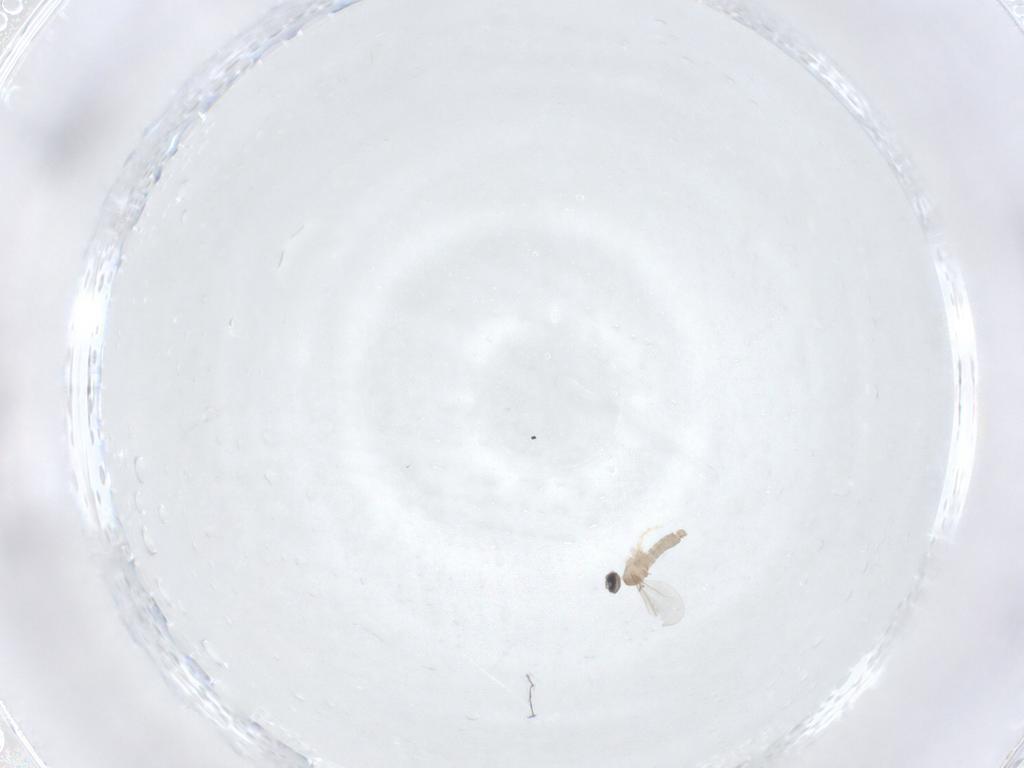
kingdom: Animalia
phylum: Arthropoda
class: Insecta
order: Diptera
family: Cecidomyiidae
